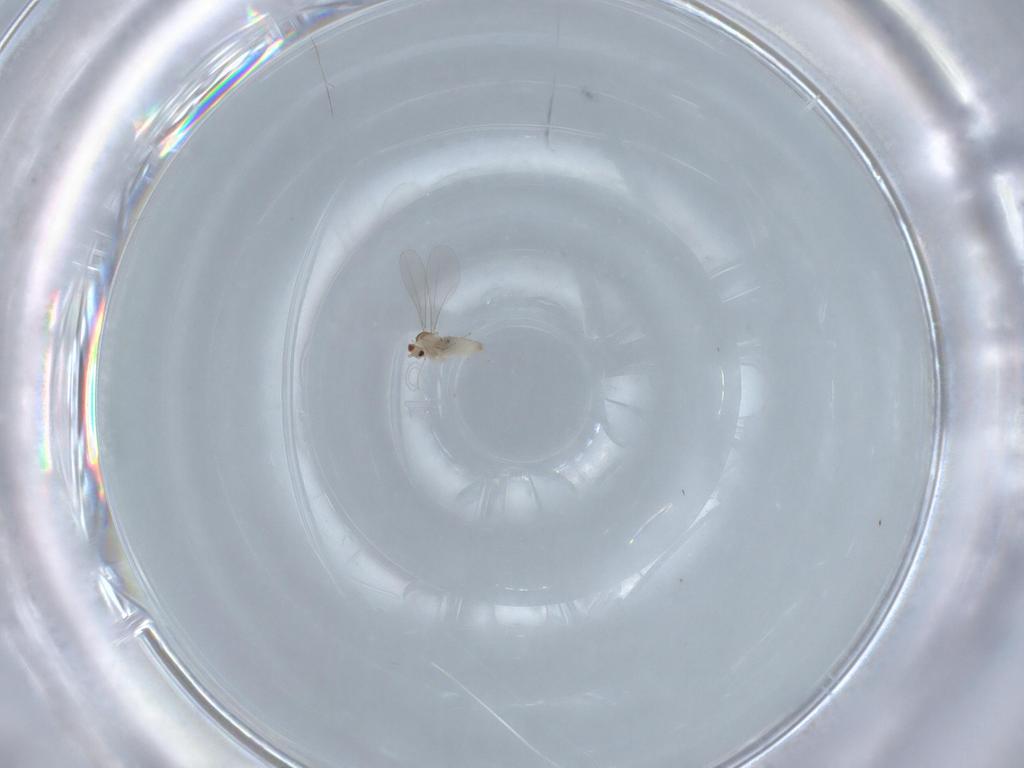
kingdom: Animalia
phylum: Arthropoda
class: Insecta
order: Diptera
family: Cecidomyiidae
